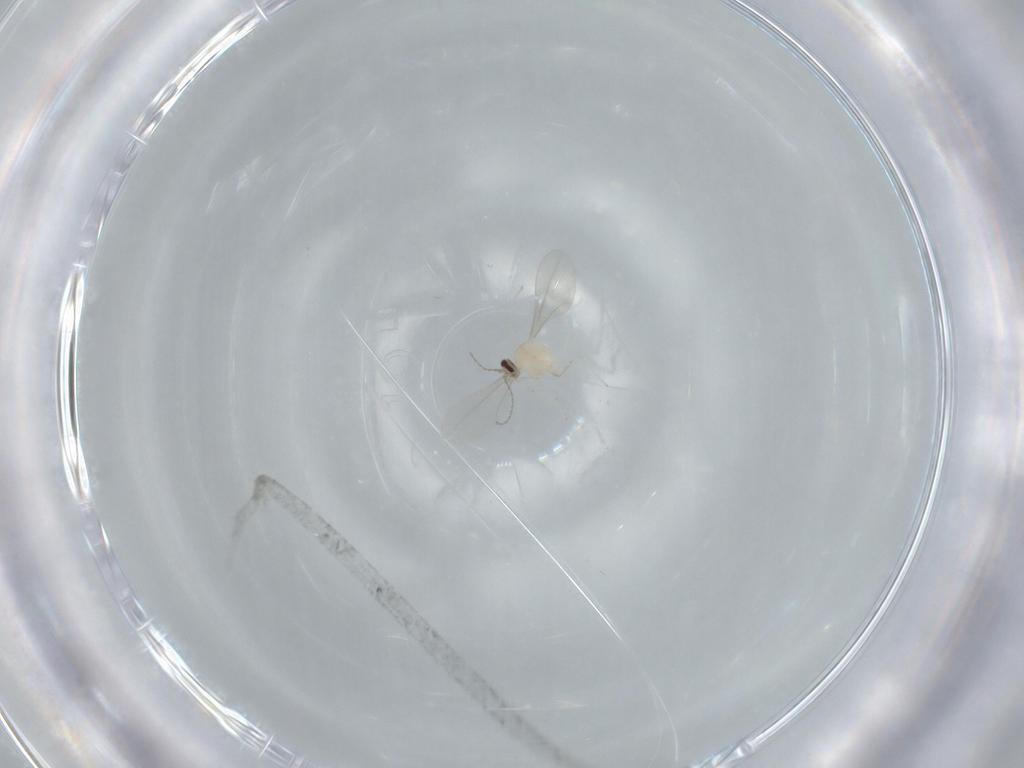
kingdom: Animalia
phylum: Arthropoda
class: Insecta
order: Diptera
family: Cecidomyiidae
